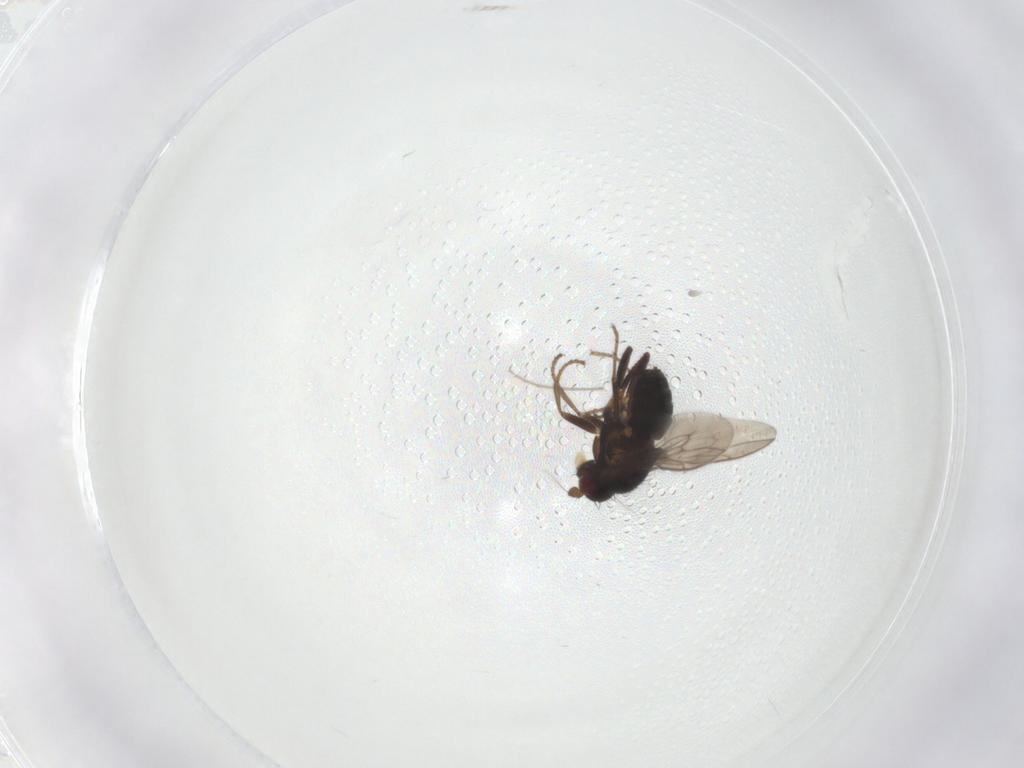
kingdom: Animalia
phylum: Arthropoda
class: Insecta
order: Diptera
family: Sphaeroceridae
